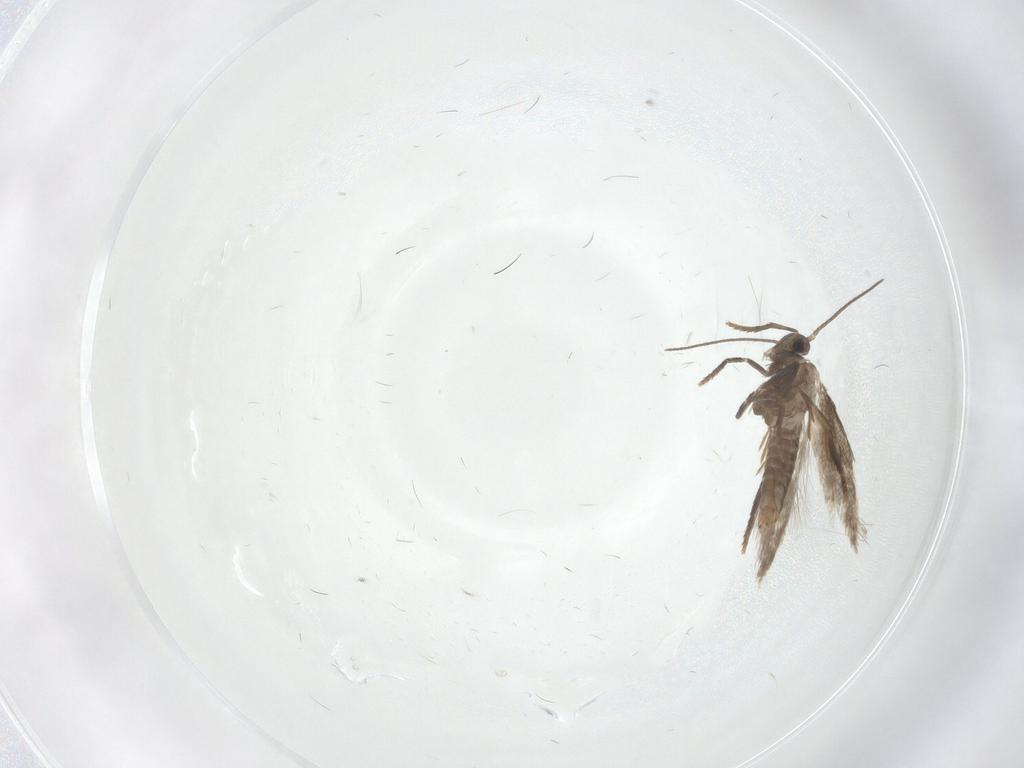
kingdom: Animalia
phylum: Arthropoda
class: Insecta
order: Lepidoptera
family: Heliozelidae
